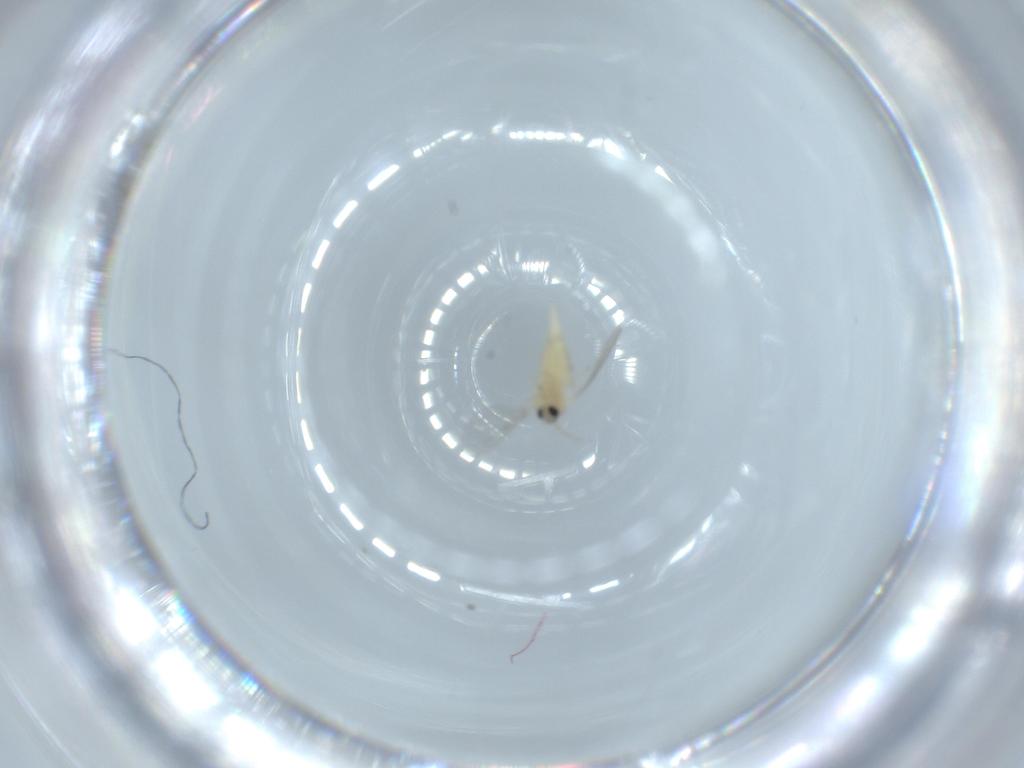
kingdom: Animalia
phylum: Arthropoda
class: Insecta
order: Diptera
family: Cecidomyiidae
